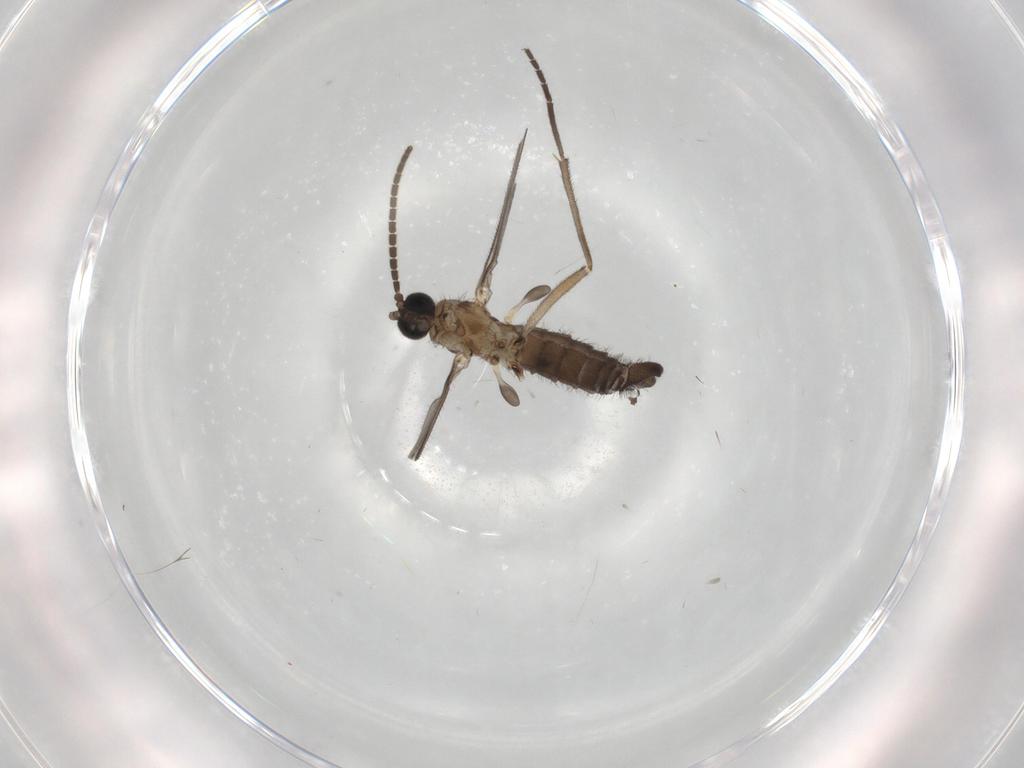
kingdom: Animalia
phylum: Arthropoda
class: Insecta
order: Diptera
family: Sciaridae
